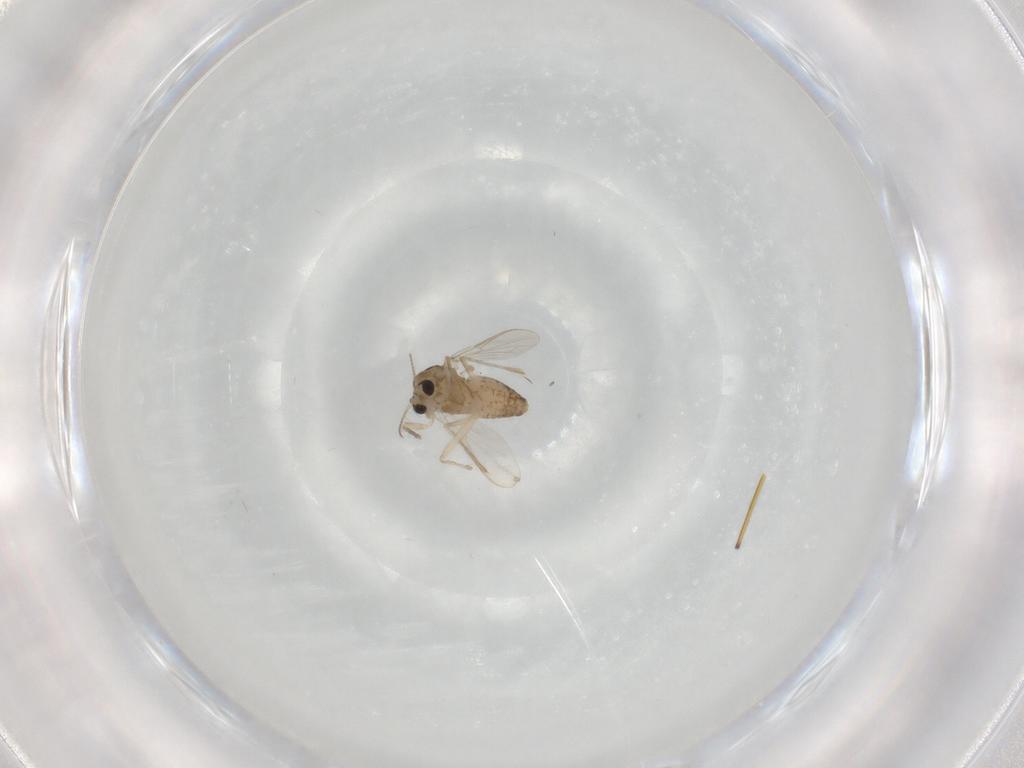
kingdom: Animalia
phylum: Arthropoda
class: Insecta
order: Diptera
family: Chironomidae
